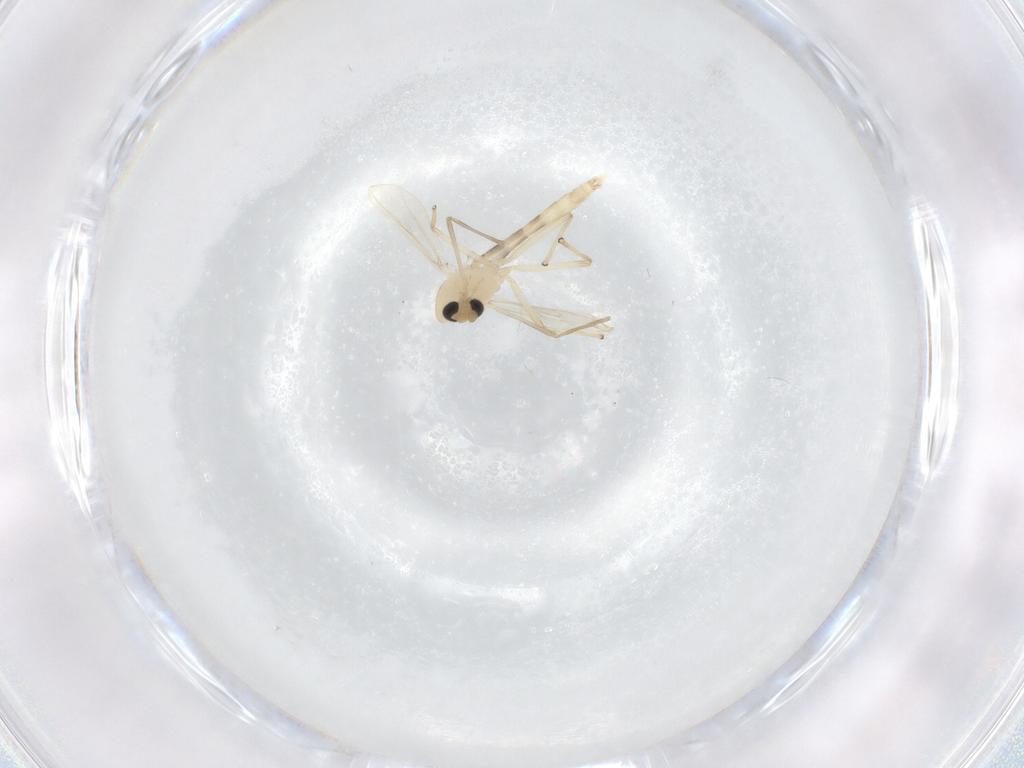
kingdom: Animalia
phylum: Arthropoda
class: Insecta
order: Diptera
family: Chironomidae
